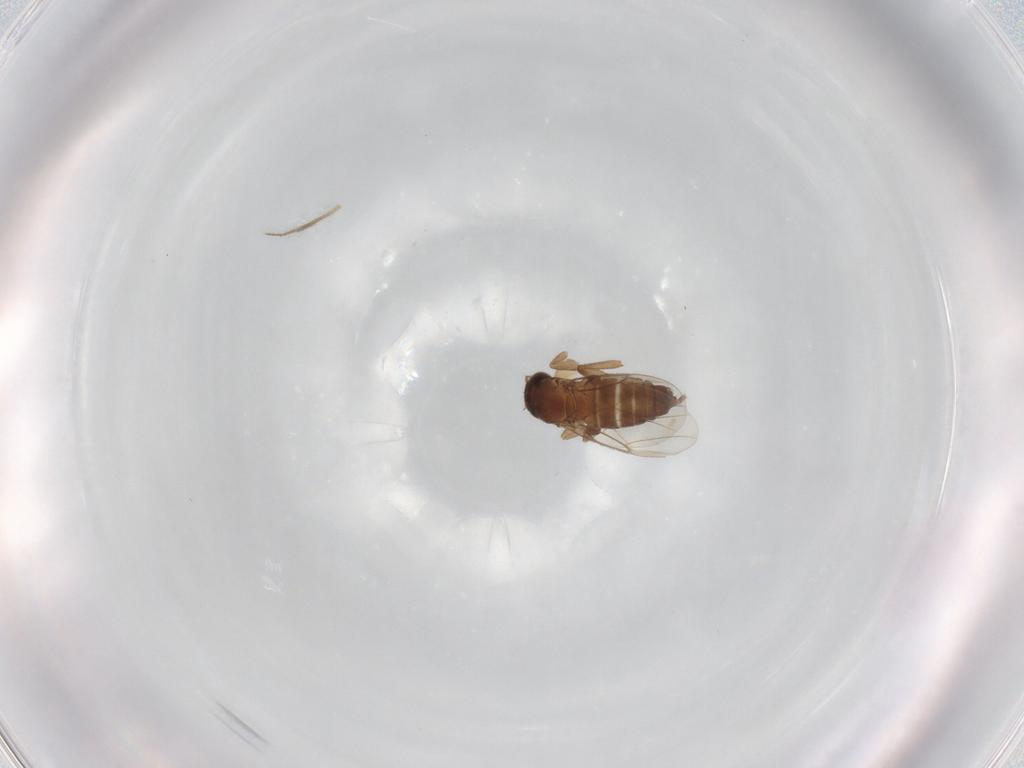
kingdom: Animalia
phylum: Arthropoda
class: Insecta
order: Diptera
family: Phoridae
